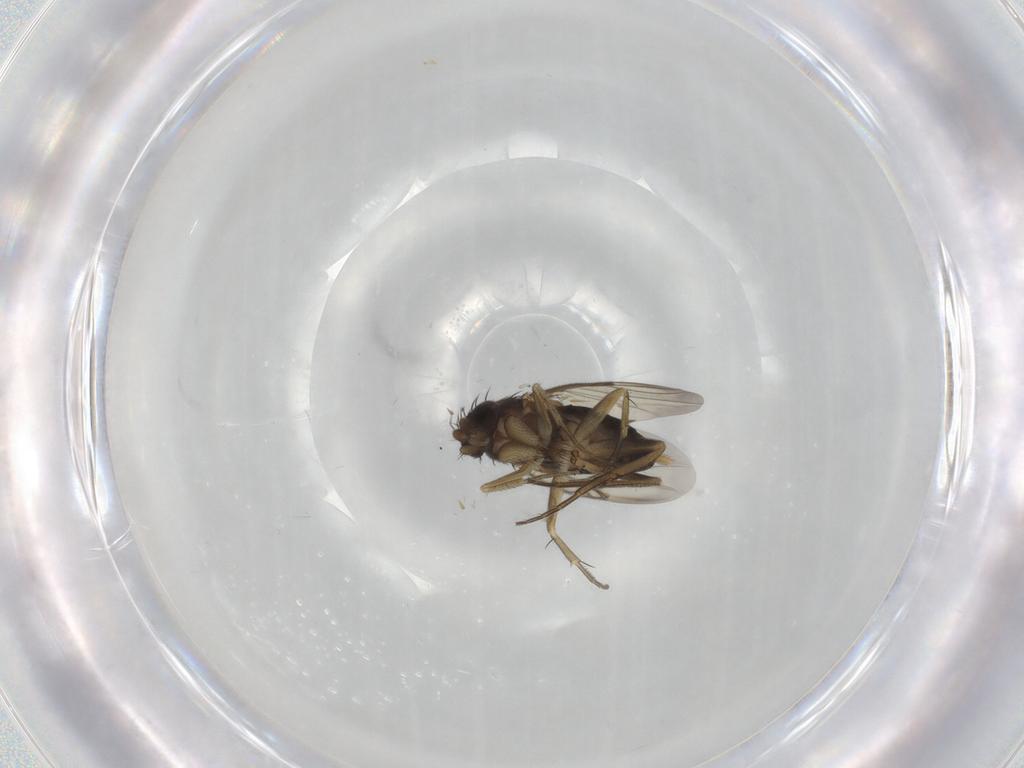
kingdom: Animalia
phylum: Arthropoda
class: Insecta
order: Diptera
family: Phoridae
